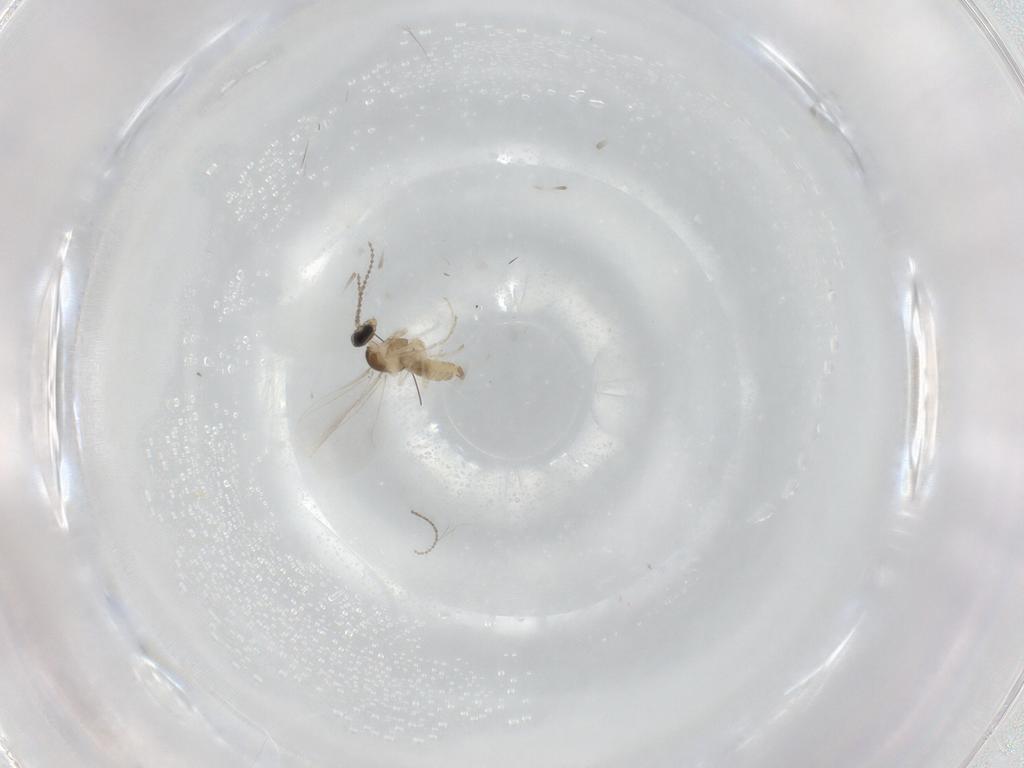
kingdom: Animalia
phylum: Arthropoda
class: Insecta
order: Diptera
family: Cecidomyiidae
